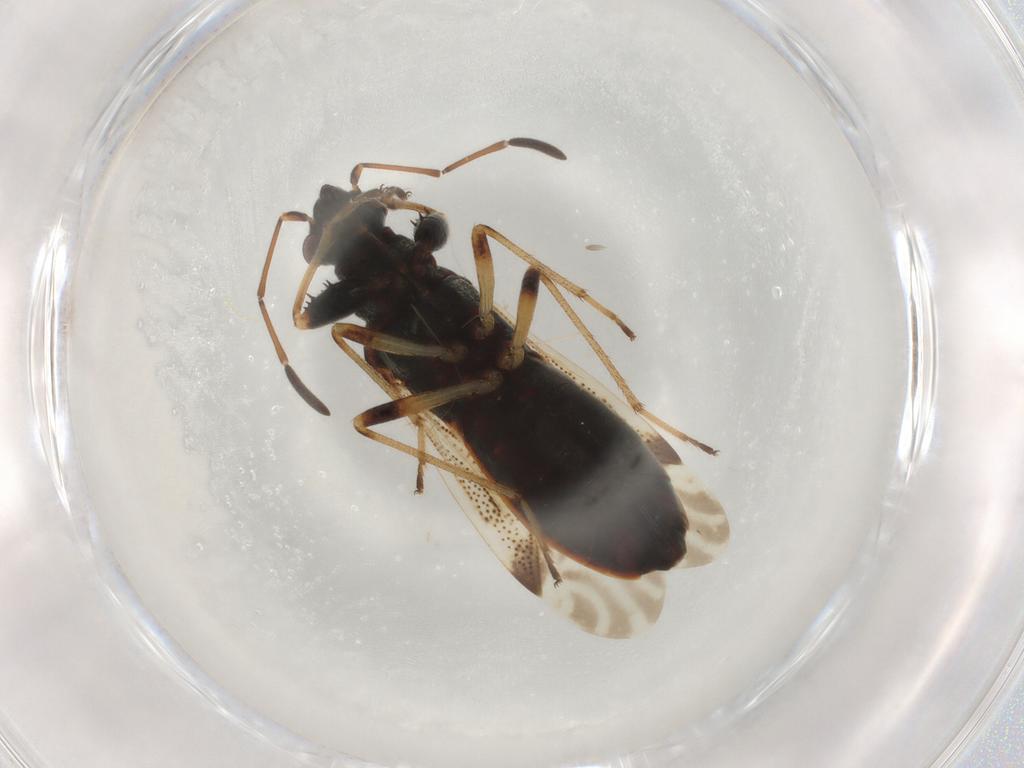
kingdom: Animalia
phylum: Arthropoda
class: Insecta
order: Hemiptera
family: Rhyparochromidae
